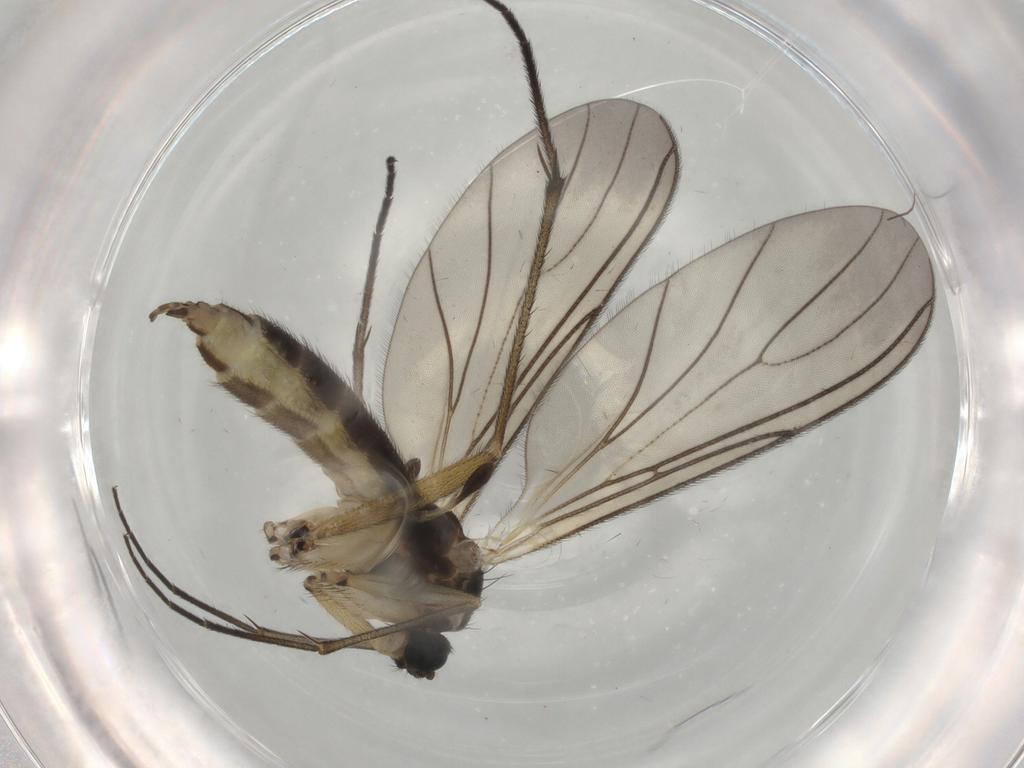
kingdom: Animalia
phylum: Arthropoda
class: Insecta
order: Diptera
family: Sciaridae
